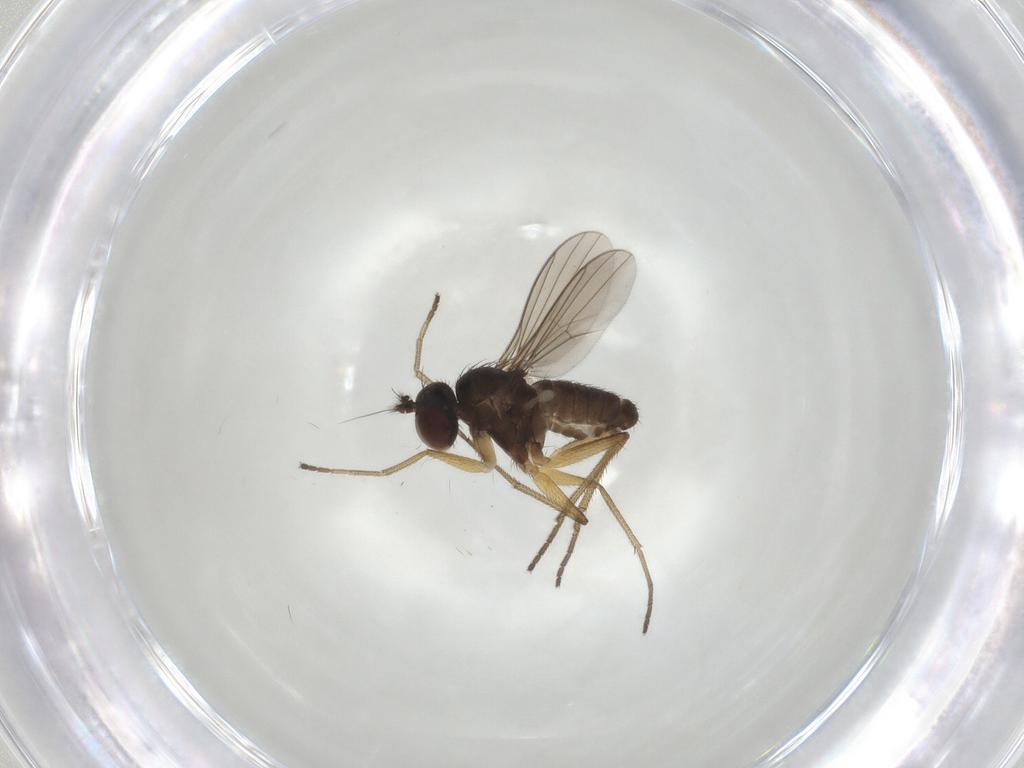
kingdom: Animalia
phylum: Arthropoda
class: Insecta
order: Diptera
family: Dolichopodidae
